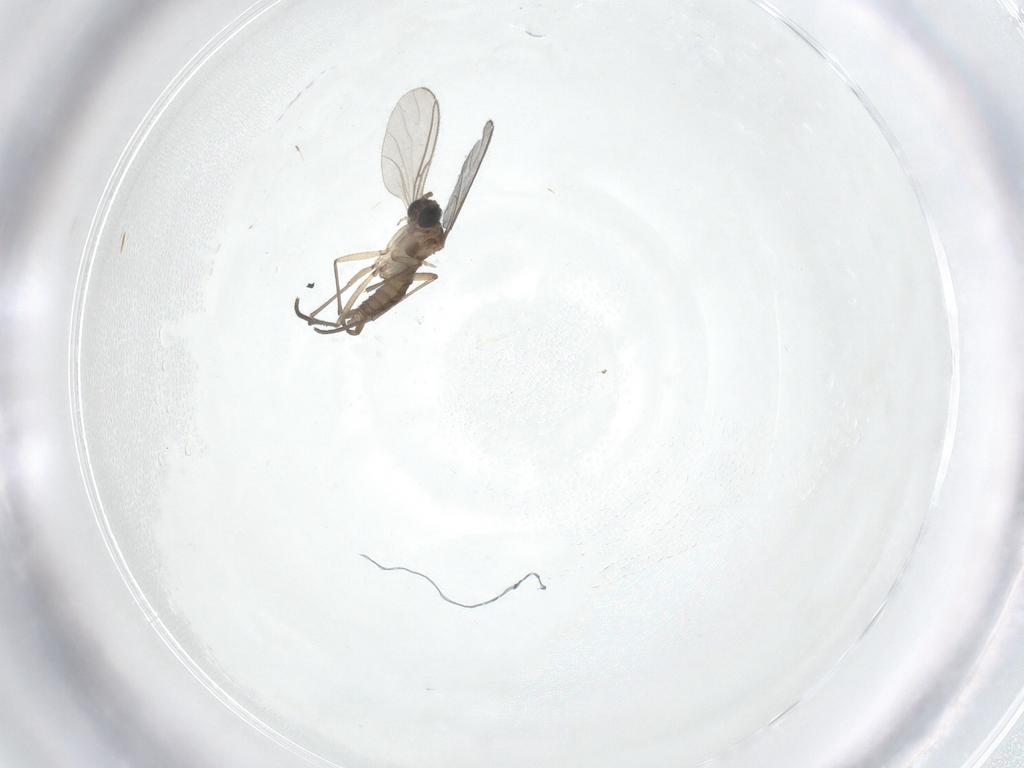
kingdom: Animalia
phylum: Arthropoda
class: Insecta
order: Diptera
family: Sciaridae
